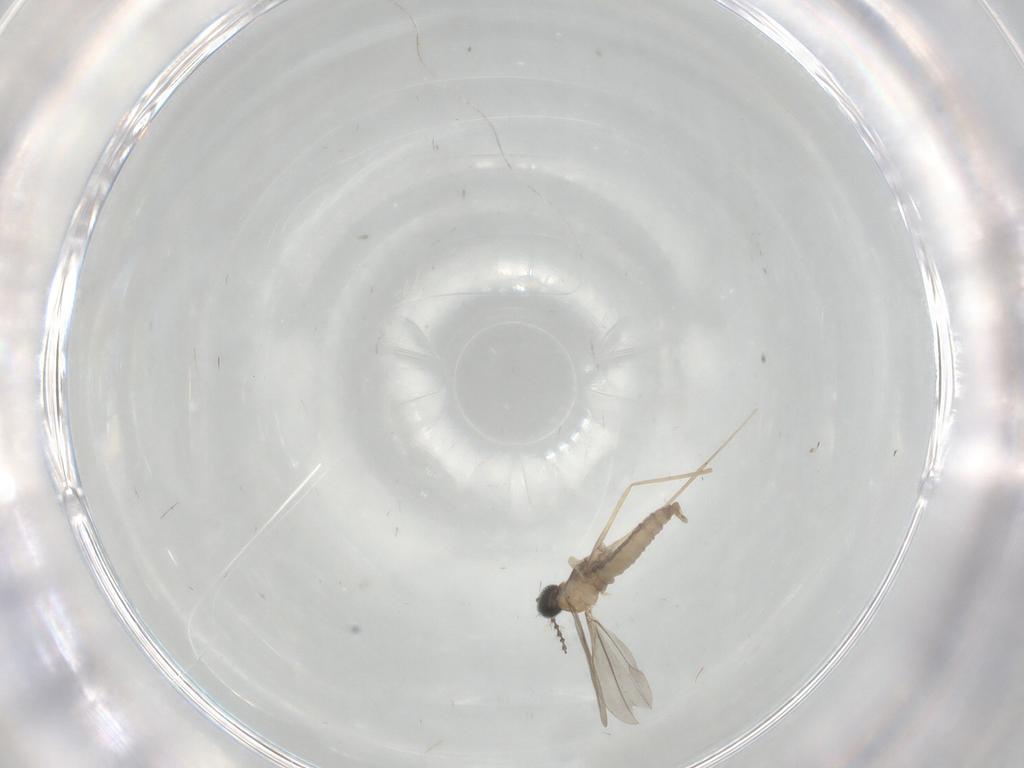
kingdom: Animalia
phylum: Arthropoda
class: Insecta
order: Diptera
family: Cecidomyiidae
